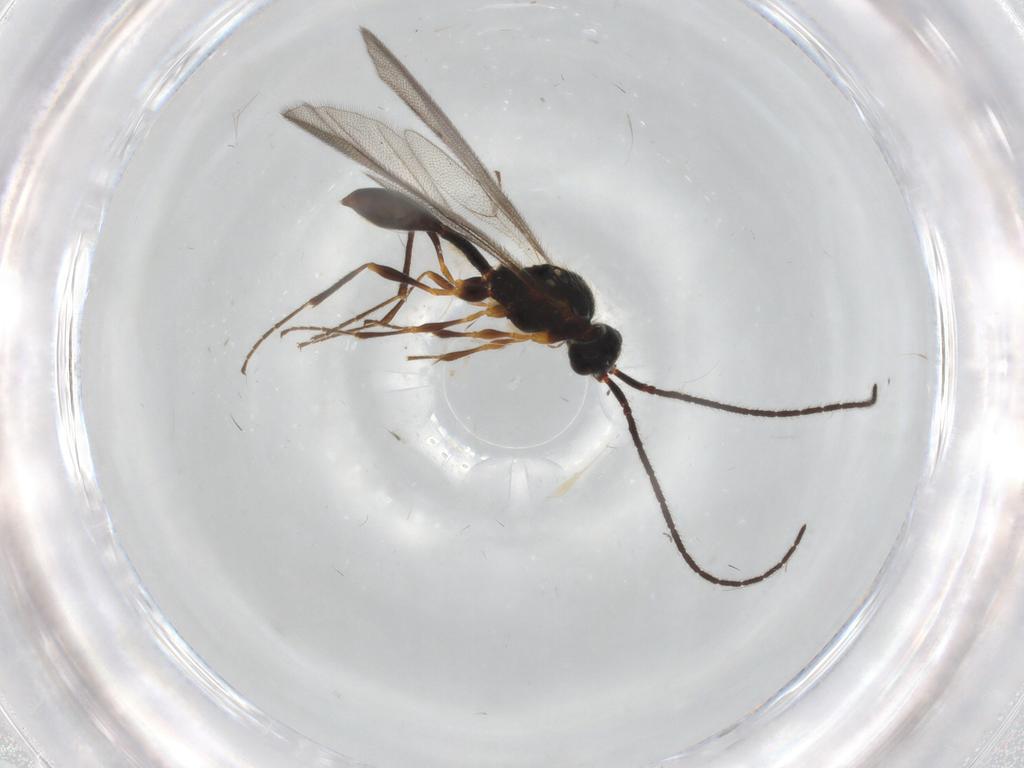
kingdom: Animalia
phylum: Arthropoda
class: Insecta
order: Hymenoptera
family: Diapriidae
